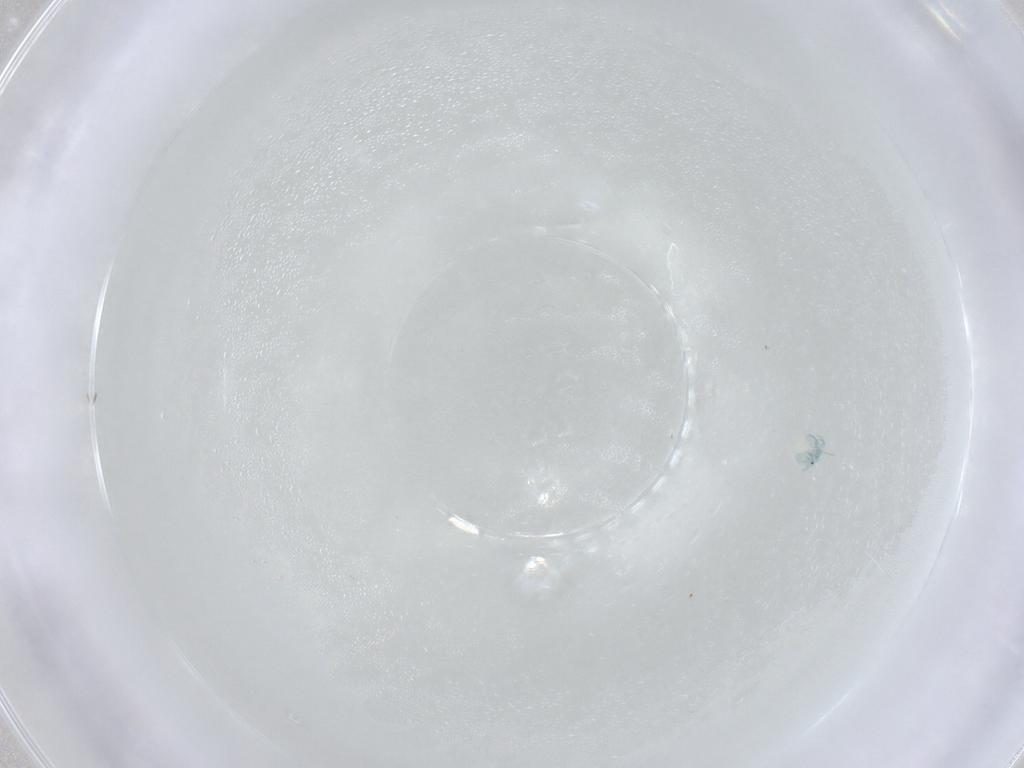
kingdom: Animalia
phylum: Arthropoda
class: Arachnida
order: Trombidiformes
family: Arrenuridae
